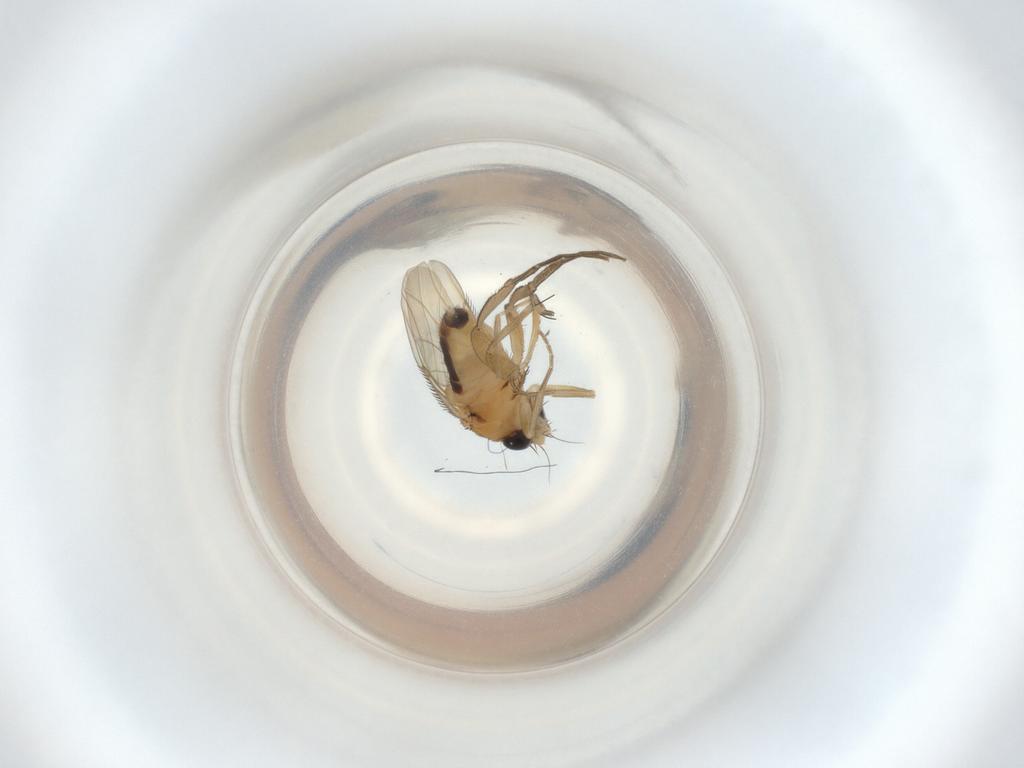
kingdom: Animalia
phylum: Arthropoda
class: Insecta
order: Diptera
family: Phoridae
